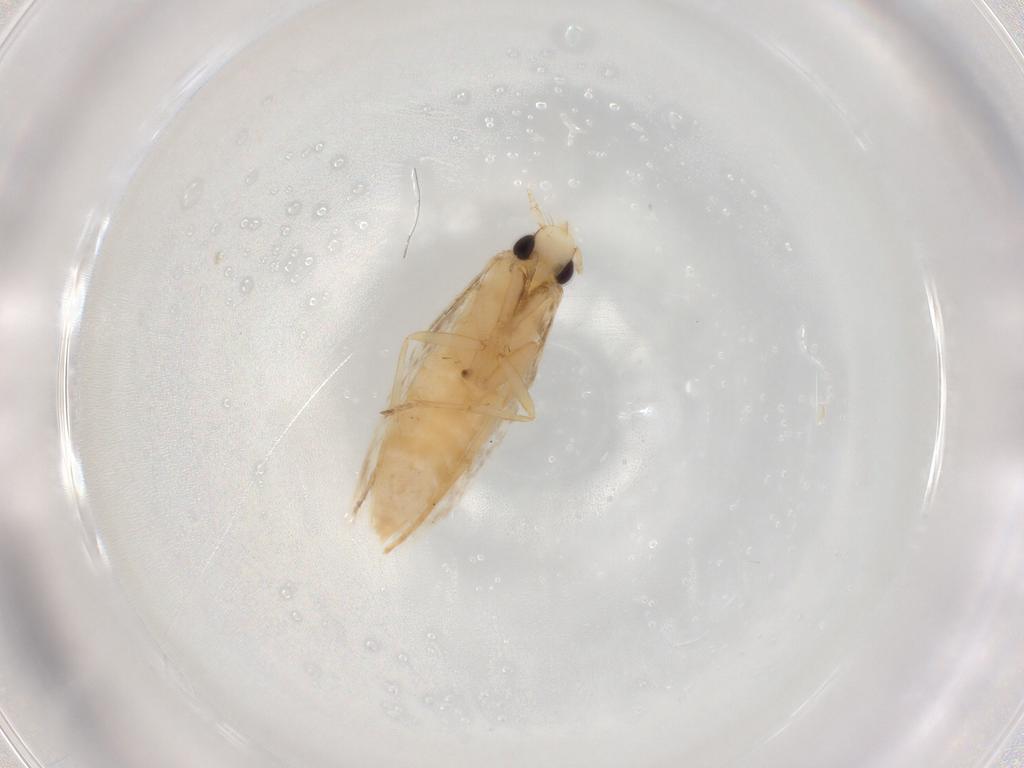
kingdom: Animalia
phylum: Arthropoda
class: Insecta
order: Lepidoptera
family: Tineidae
